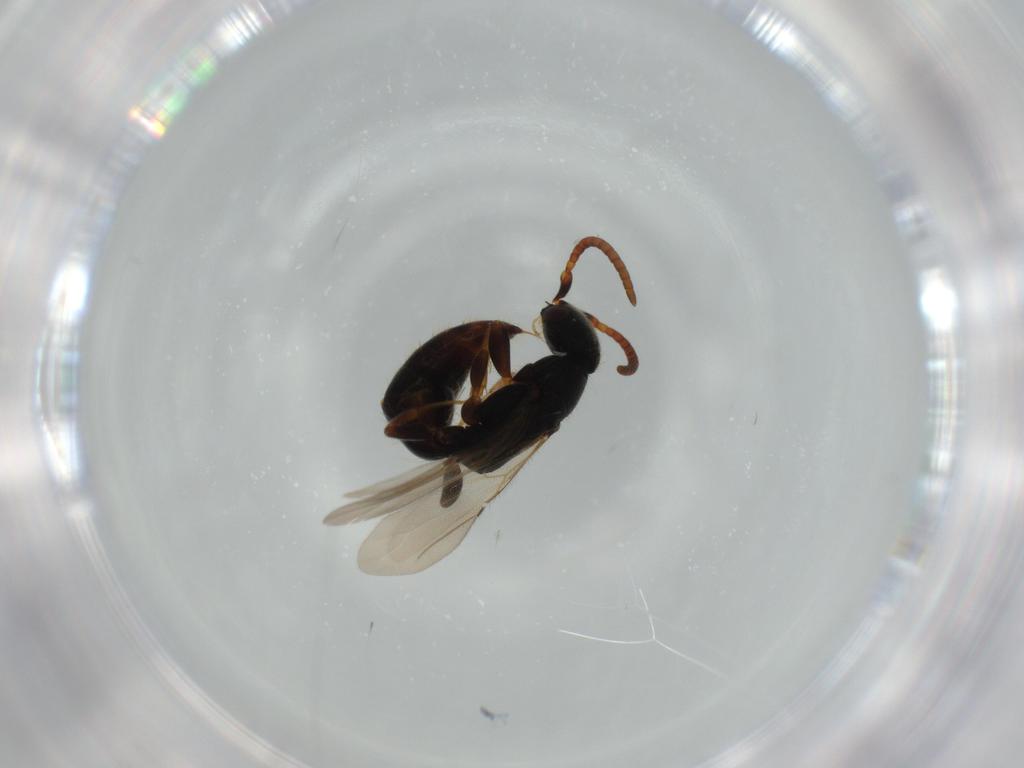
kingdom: Animalia
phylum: Arthropoda
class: Insecta
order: Hymenoptera
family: Bethylidae
